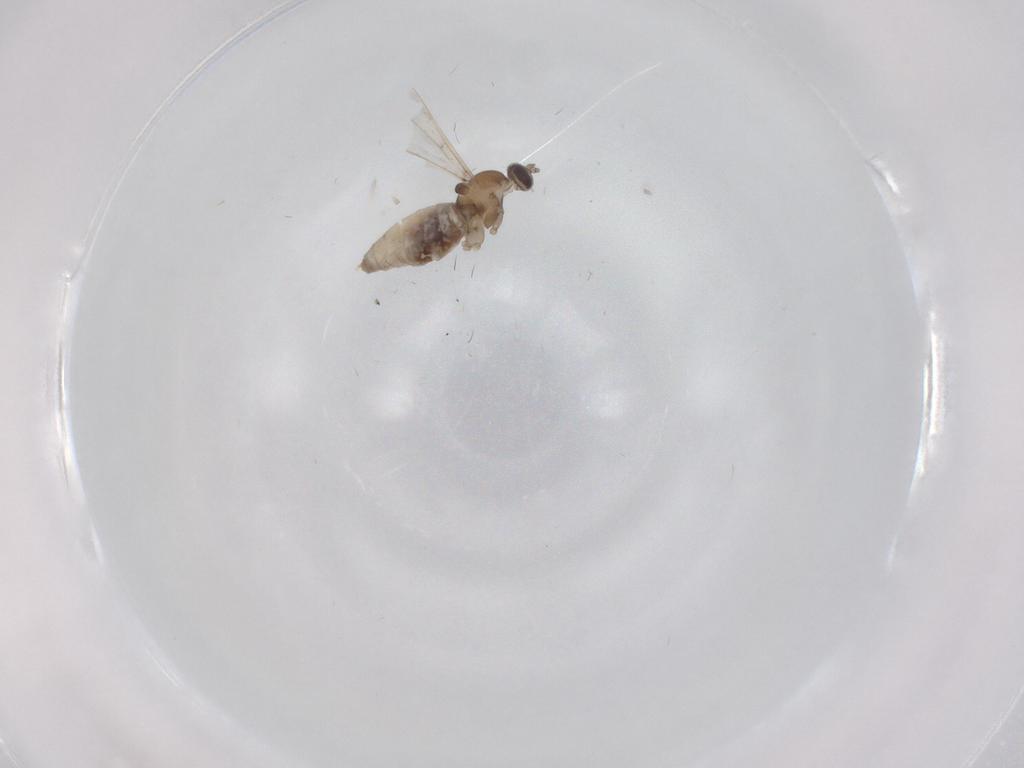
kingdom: Animalia
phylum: Arthropoda
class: Insecta
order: Diptera
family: Cecidomyiidae
